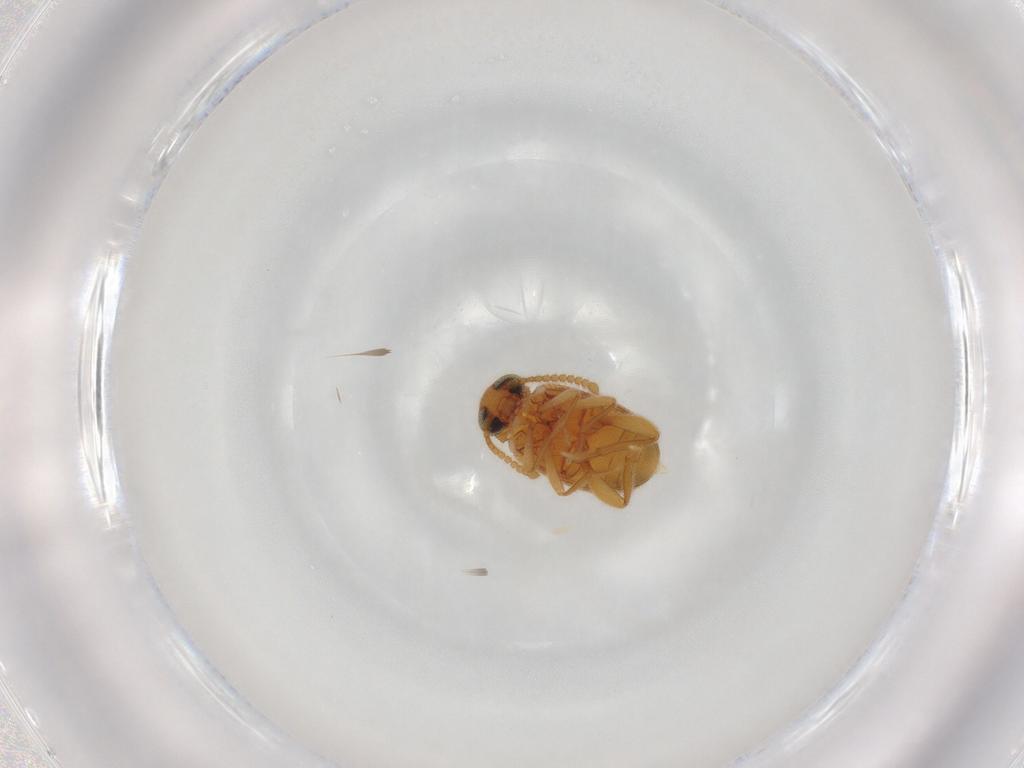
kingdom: Animalia
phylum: Arthropoda
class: Insecta
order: Coleoptera
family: Aderidae
